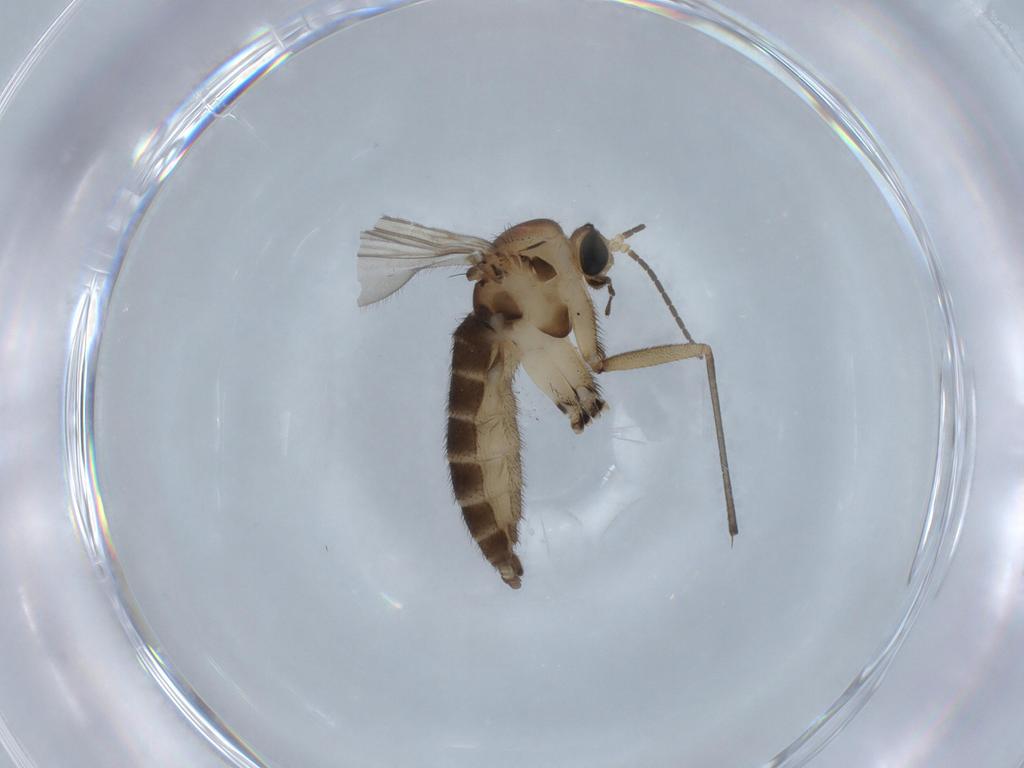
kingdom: Animalia
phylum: Arthropoda
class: Insecta
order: Diptera
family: Sciaridae
